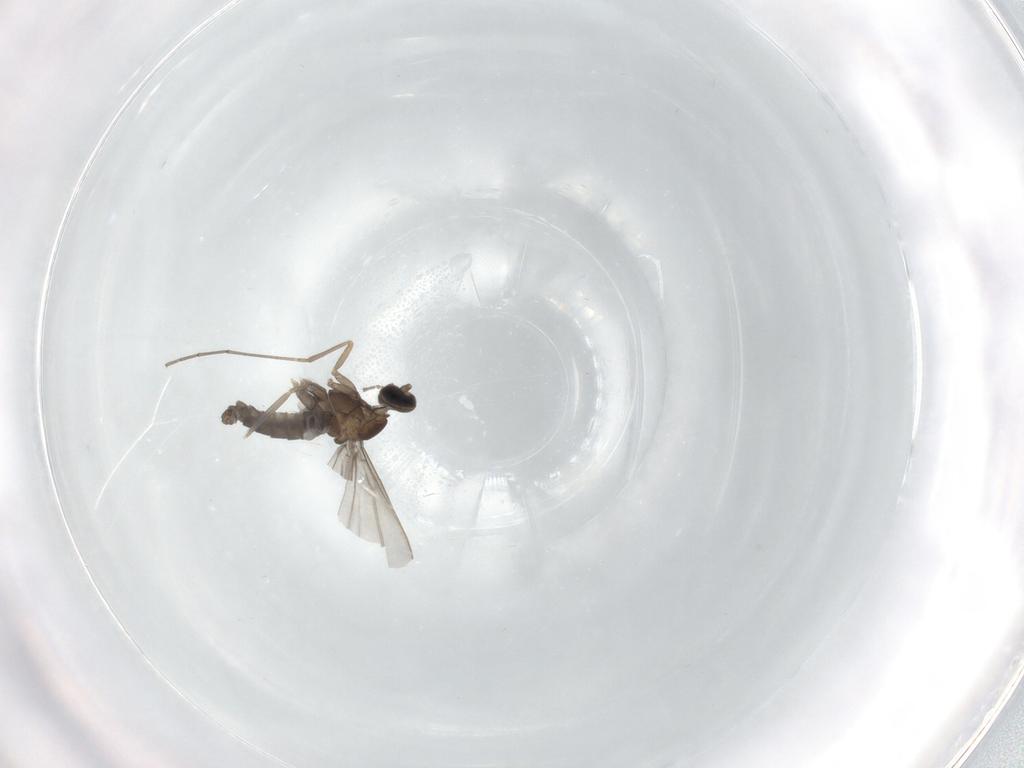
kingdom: Animalia
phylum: Arthropoda
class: Insecta
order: Diptera
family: Cecidomyiidae
